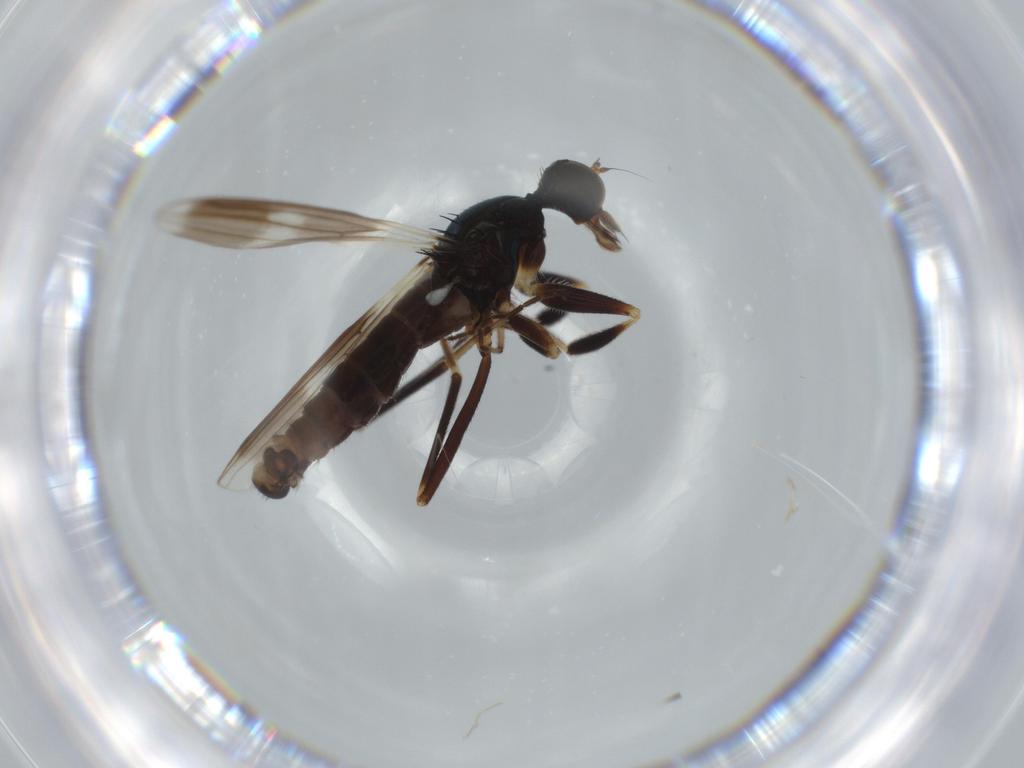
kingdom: Animalia
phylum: Arthropoda
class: Insecta
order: Diptera
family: Hybotidae
